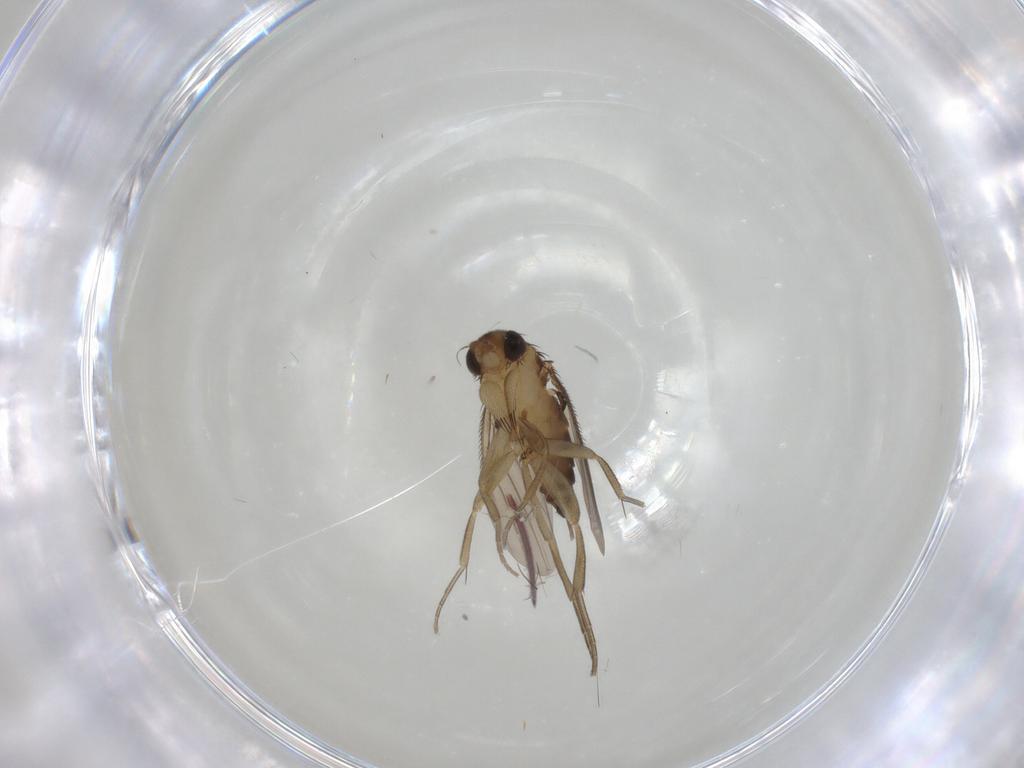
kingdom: Animalia
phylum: Arthropoda
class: Insecta
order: Diptera
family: Phoridae
